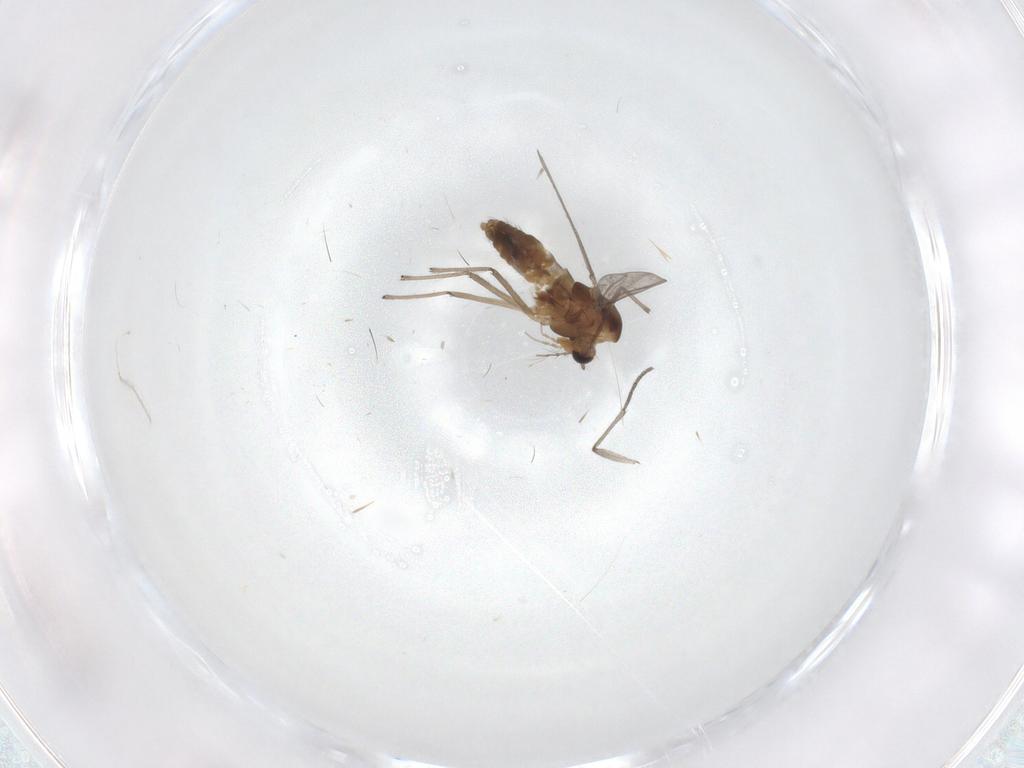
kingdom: Animalia
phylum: Arthropoda
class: Insecta
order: Diptera
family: Chironomidae
